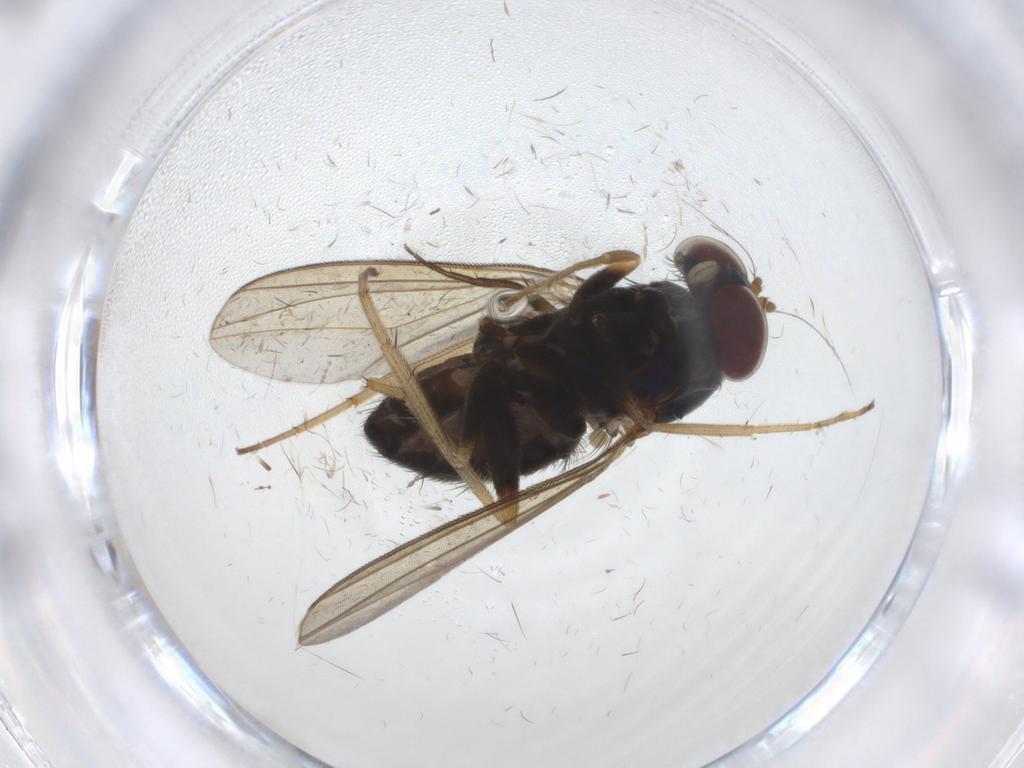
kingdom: Animalia
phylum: Arthropoda
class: Insecta
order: Diptera
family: Dolichopodidae
